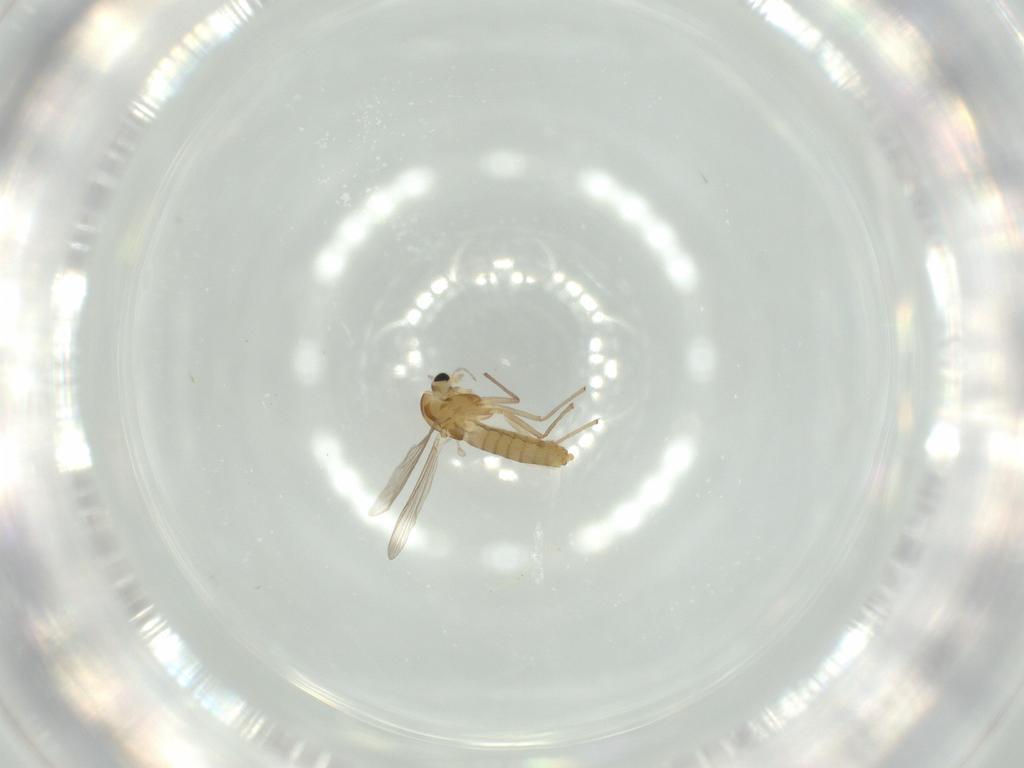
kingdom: Animalia
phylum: Arthropoda
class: Insecta
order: Diptera
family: Chironomidae
